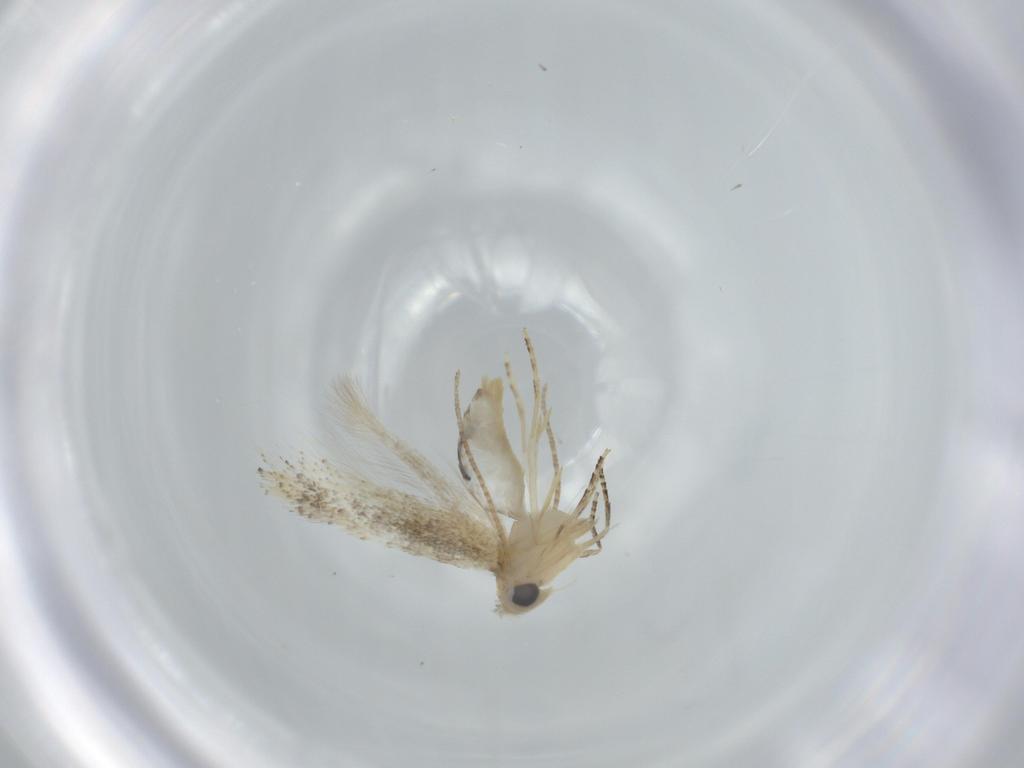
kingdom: Animalia
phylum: Arthropoda
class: Insecta
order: Lepidoptera
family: Bucculatricidae
